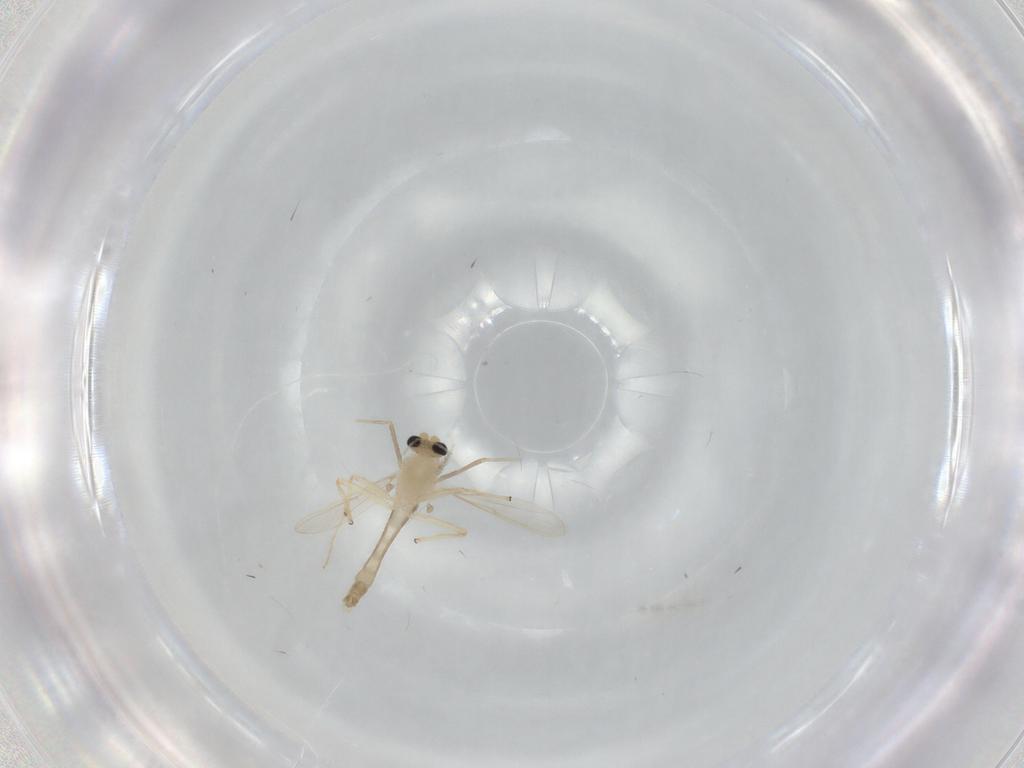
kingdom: Animalia
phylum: Arthropoda
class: Insecta
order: Diptera
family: Chironomidae
